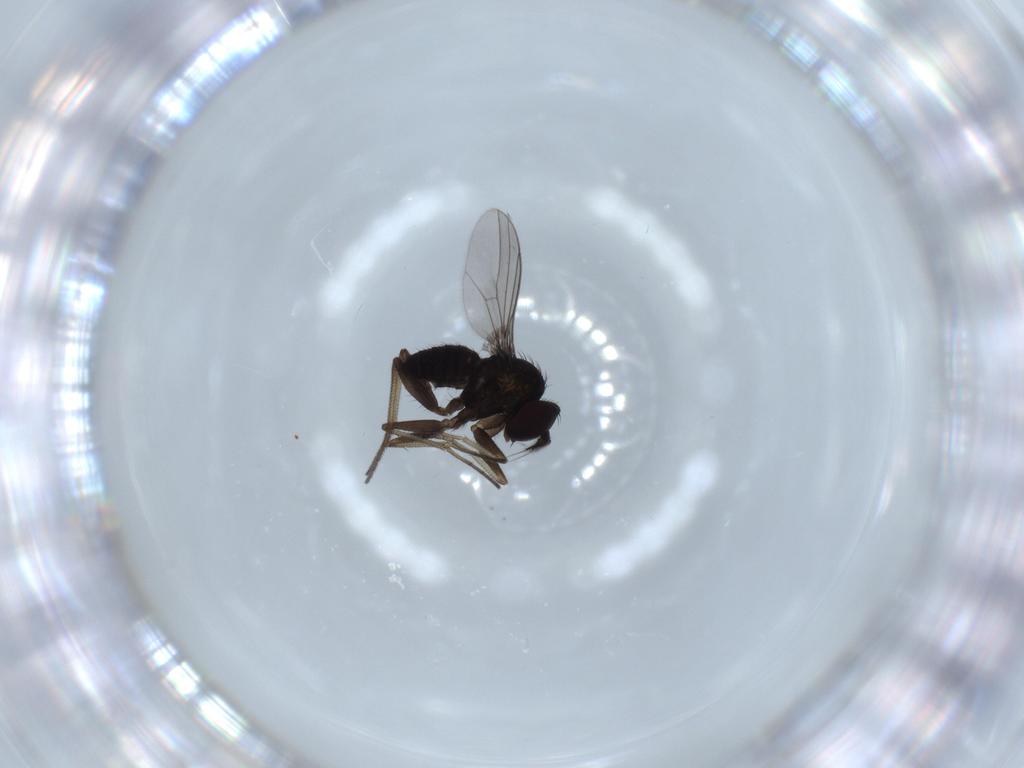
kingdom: Animalia
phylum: Arthropoda
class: Insecta
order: Diptera
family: Dolichopodidae
